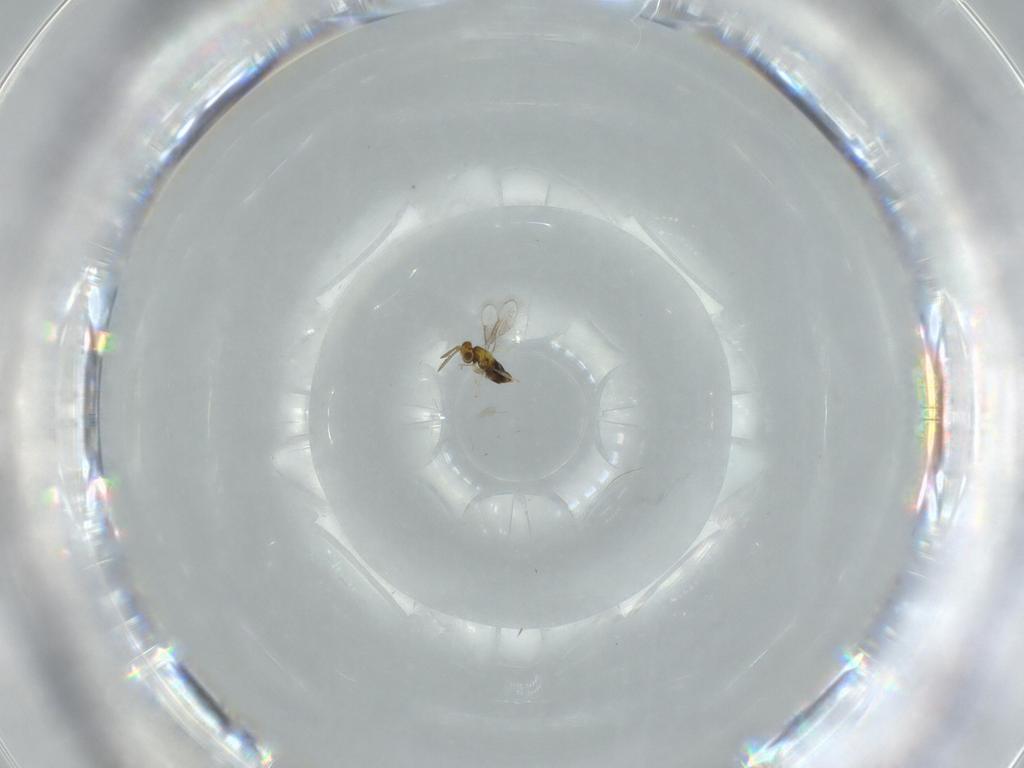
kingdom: Animalia
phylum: Arthropoda
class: Insecta
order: Hymenoptera
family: Aphelinidae
